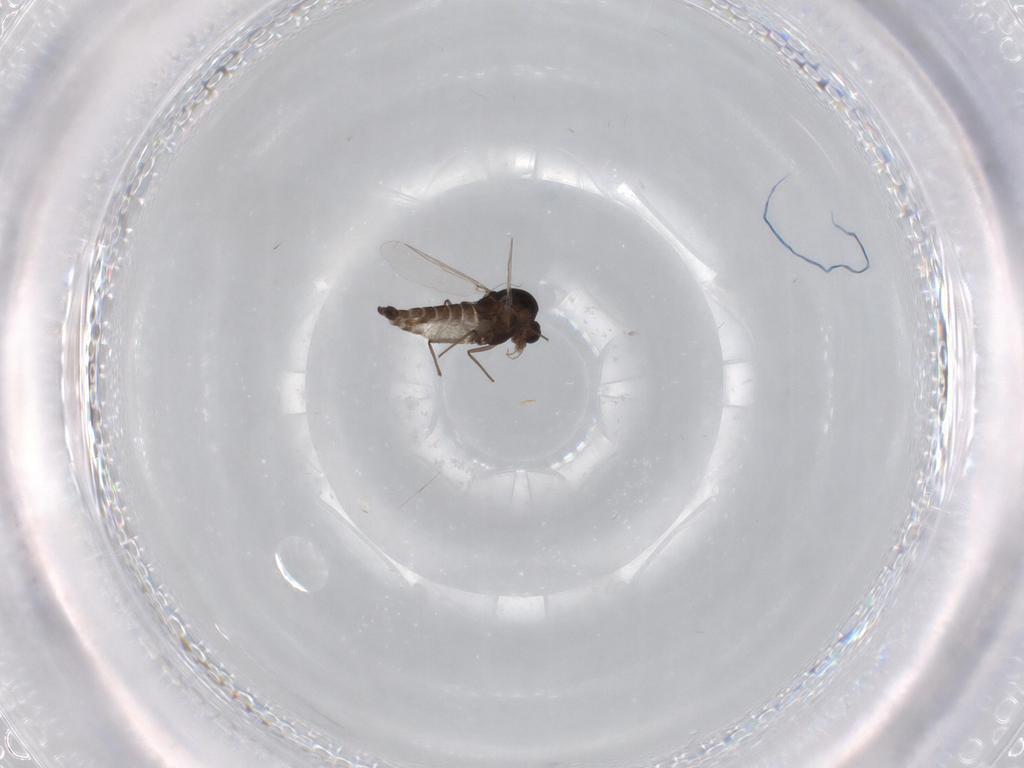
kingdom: Animalia
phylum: Arthropoda
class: Insecta
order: Diptera
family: Chironomidae
